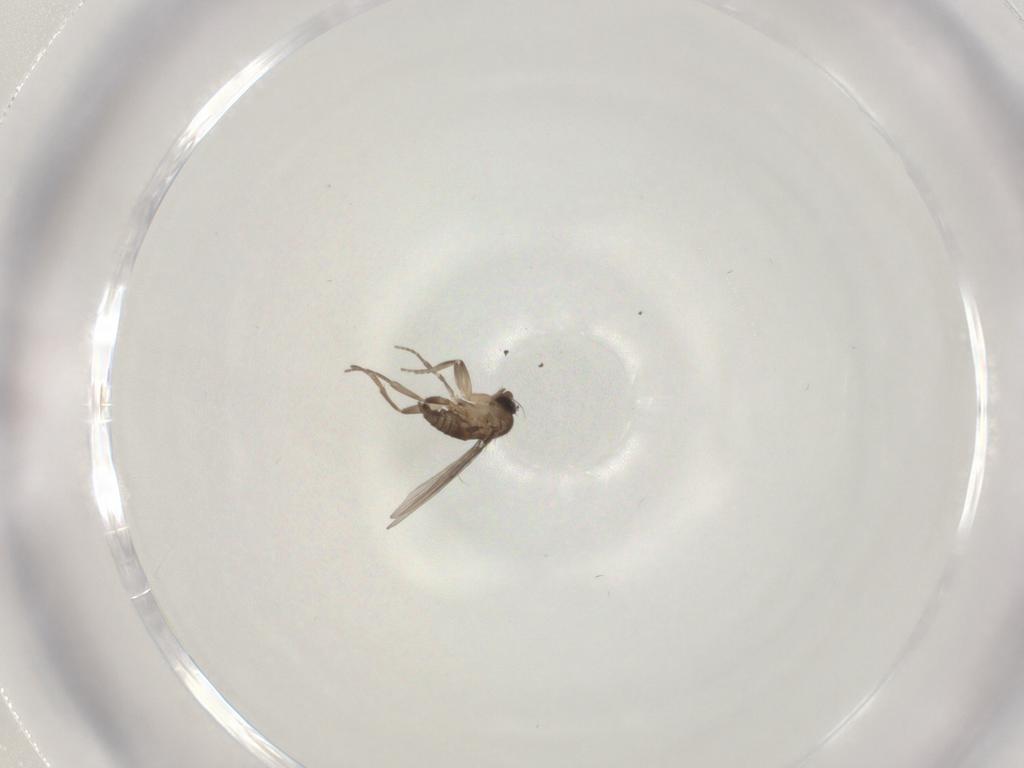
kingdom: Animalia
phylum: Arthropoda
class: Insecta
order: Diptera
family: Phoridae
